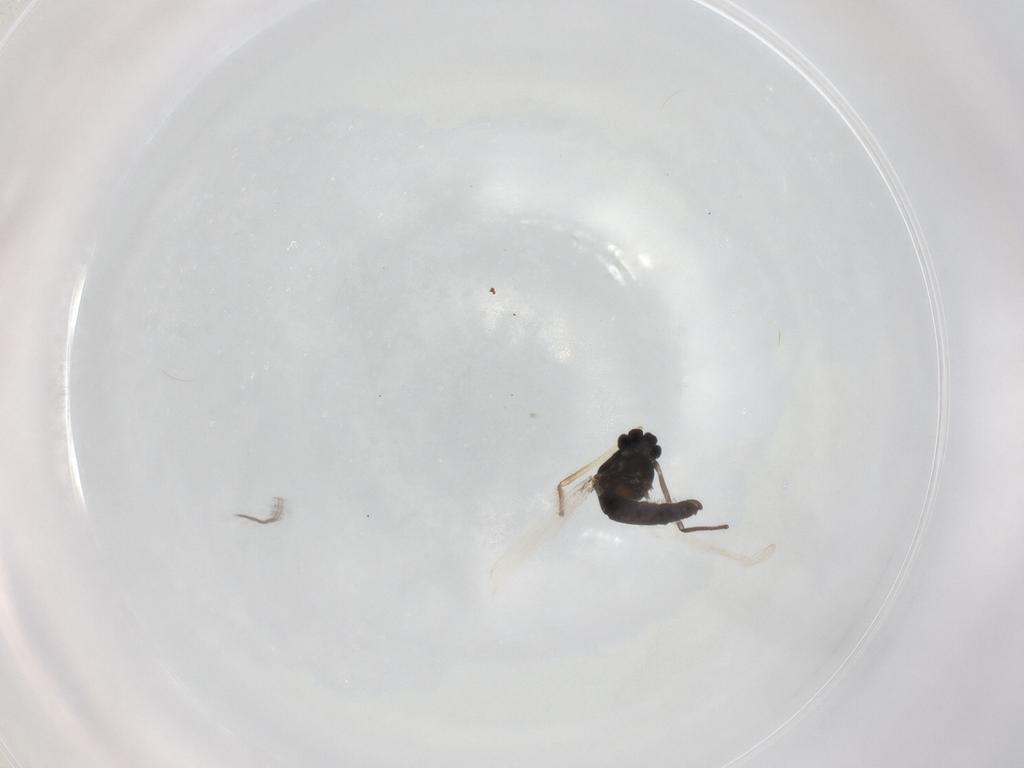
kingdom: Animalia
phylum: Arthropoda
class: Insecta
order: Diptera
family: Chironomidae
